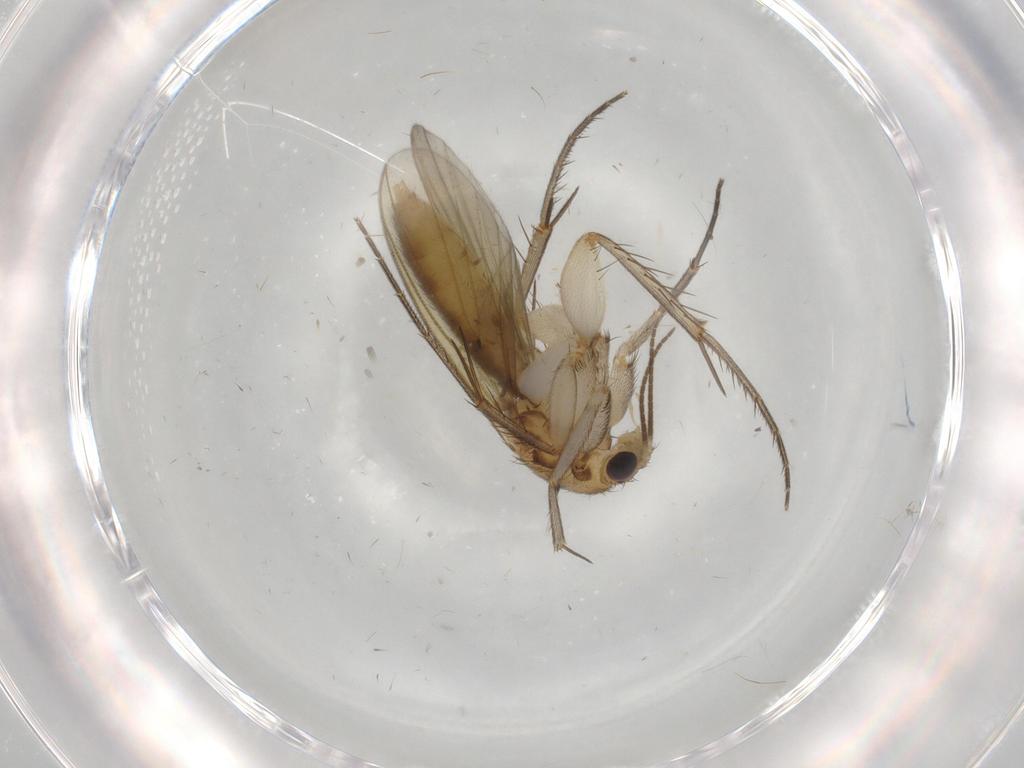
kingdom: Animalia
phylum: Arthropoda
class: Insecta
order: Diptera
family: Mycetophilidae
